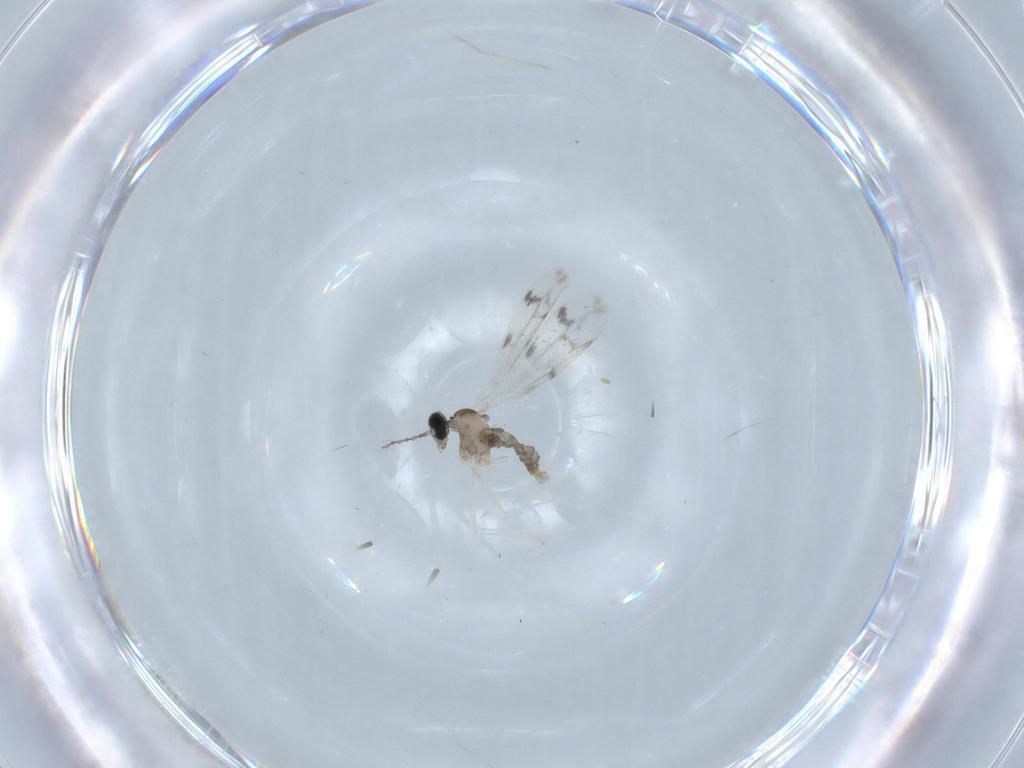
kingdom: Animalia
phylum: Arthropoda
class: Insecta
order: Diptera
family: Cecidomyiidae
